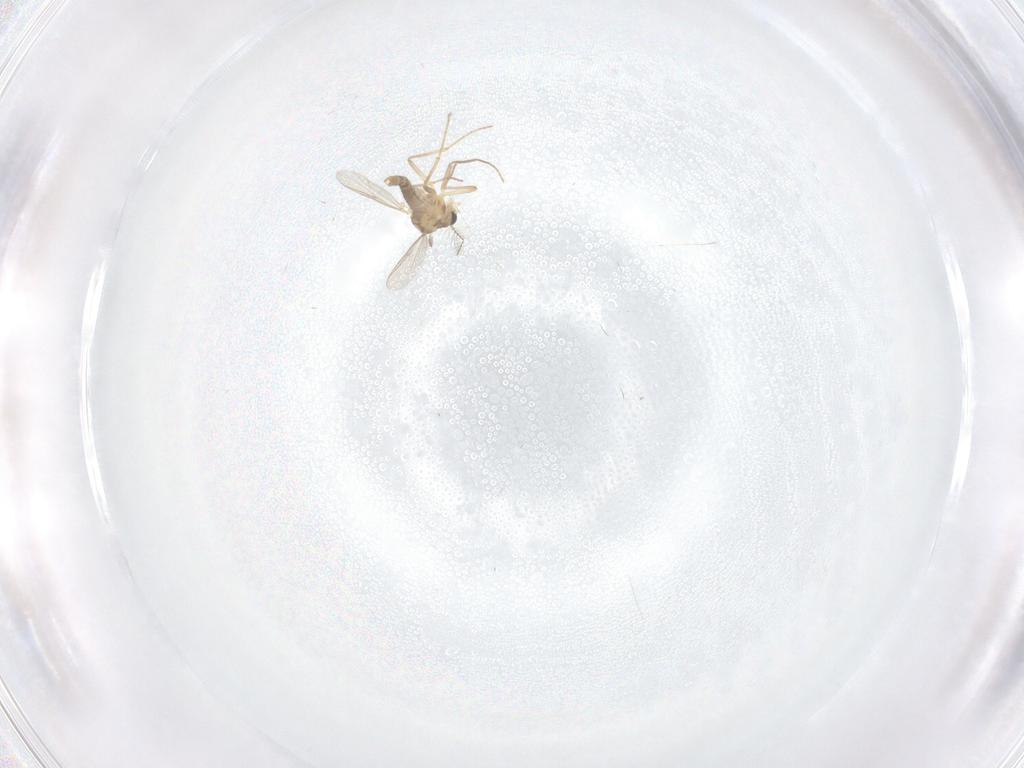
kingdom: Animalia
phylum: Arthropoda
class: Insecta
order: Diptera
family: Chironomidae
